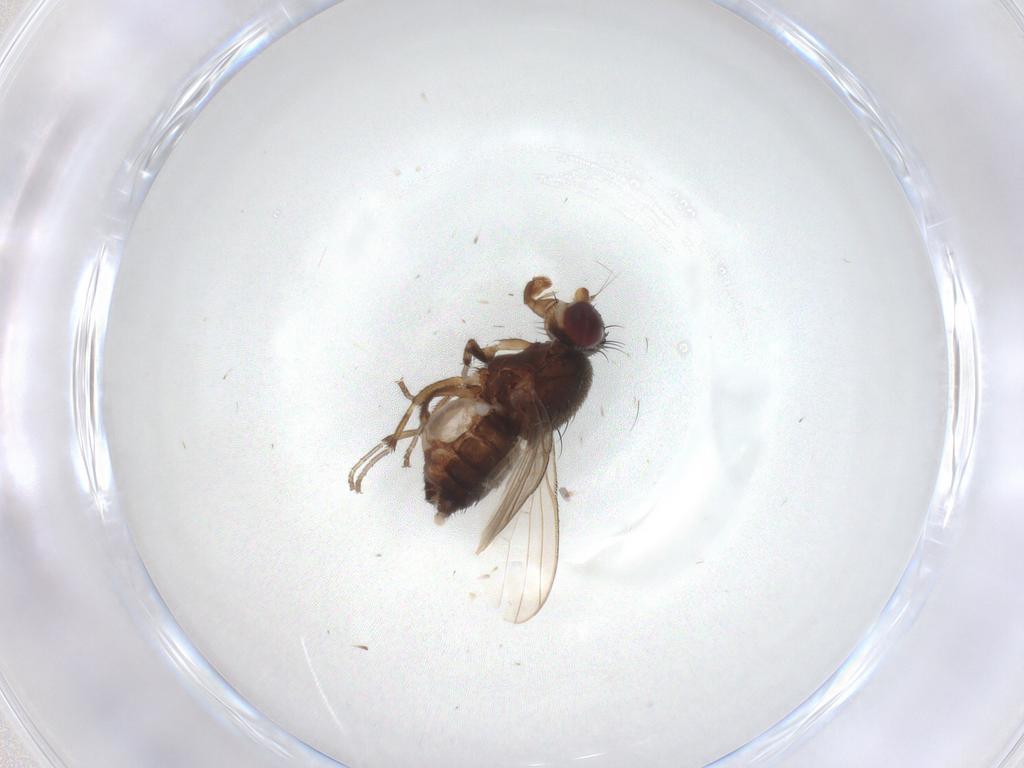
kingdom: Animalia
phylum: Arthropoda
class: Insecta
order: Diptera
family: Heleomyzidae
